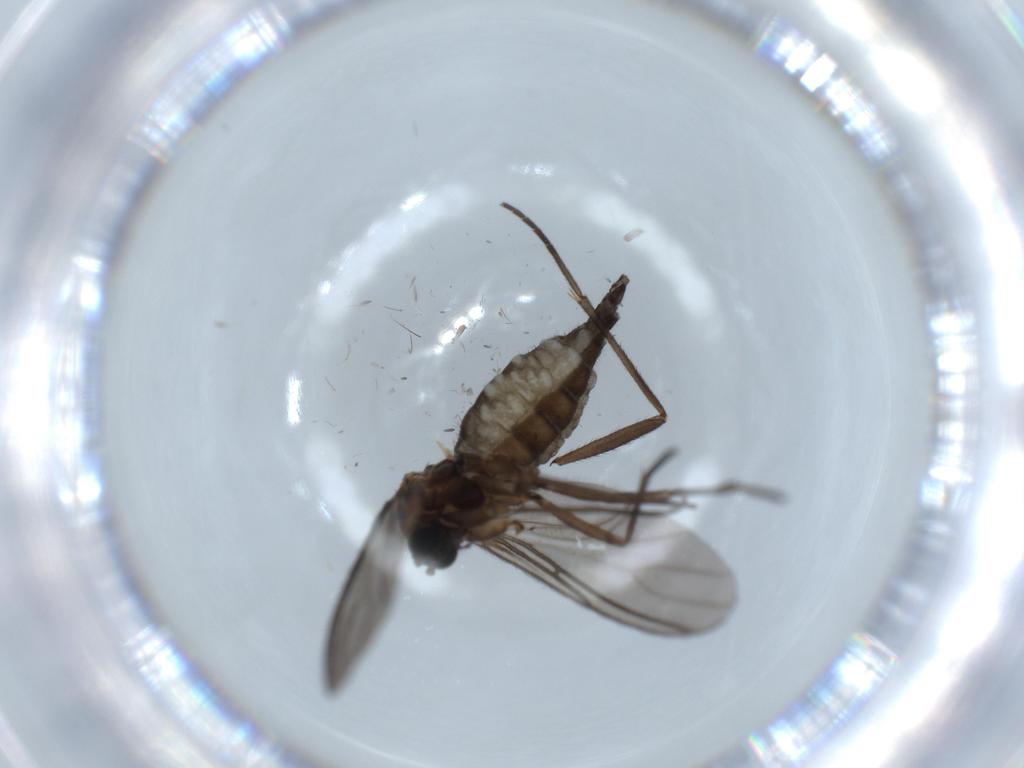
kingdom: Animalia
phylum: Arthropoda
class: Insecta
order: Diptera
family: Sciaridae
